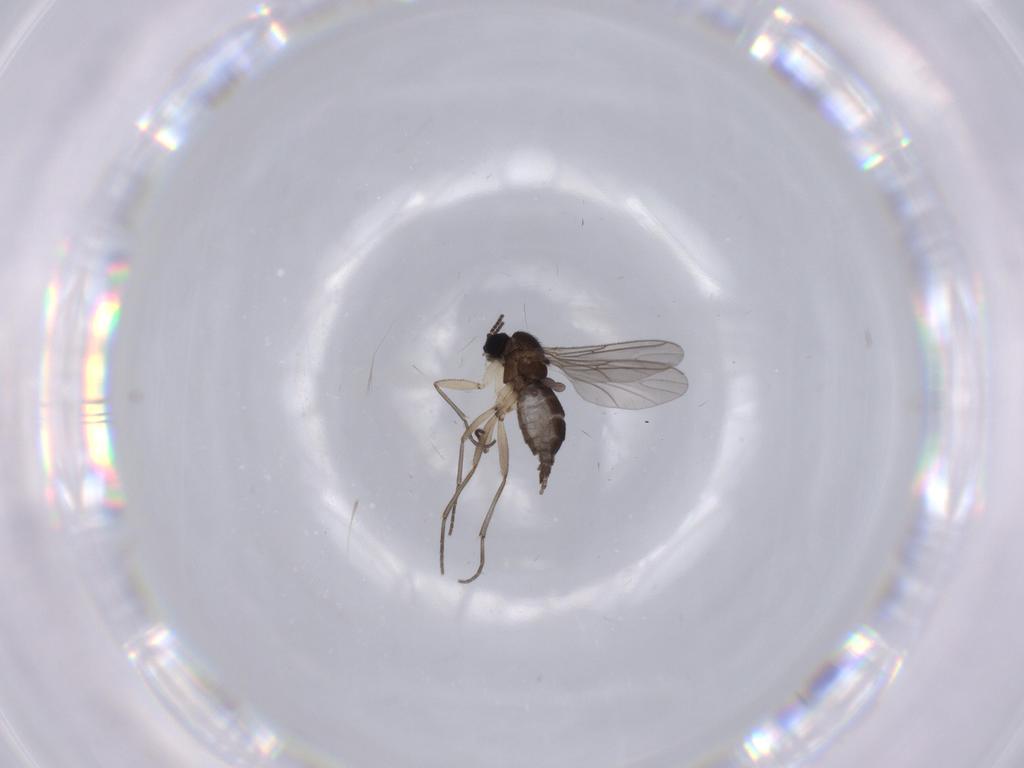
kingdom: Animalia
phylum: Arthropoda
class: Insecta
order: Diptera
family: Sciaridae
